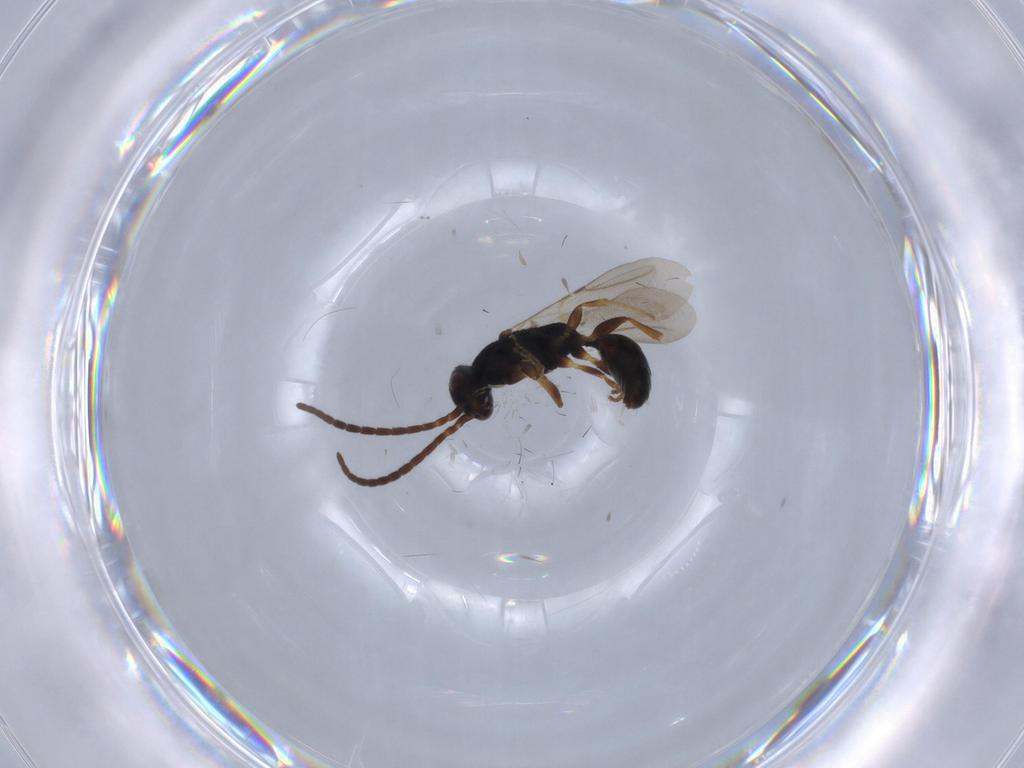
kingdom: Animalia
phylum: Arthropoda
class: Insecta
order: Hymenoptera
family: Bethylidae
